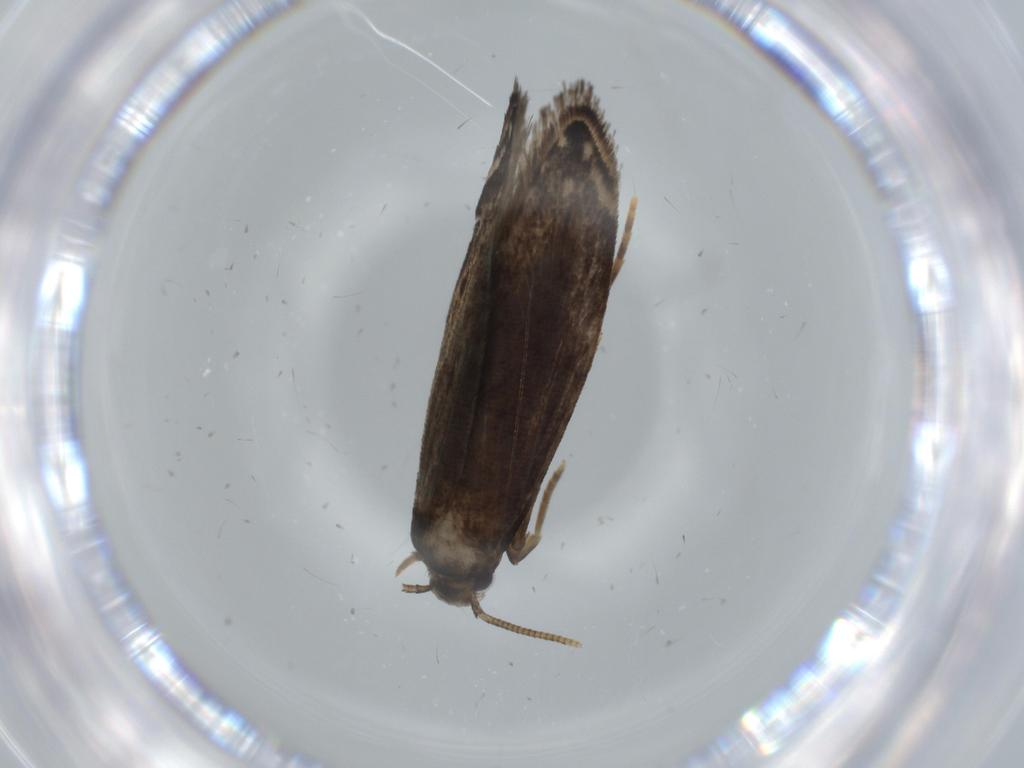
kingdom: Animalia
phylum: Arthropoda
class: Insecta
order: Lepidoptera
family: Tineidae
